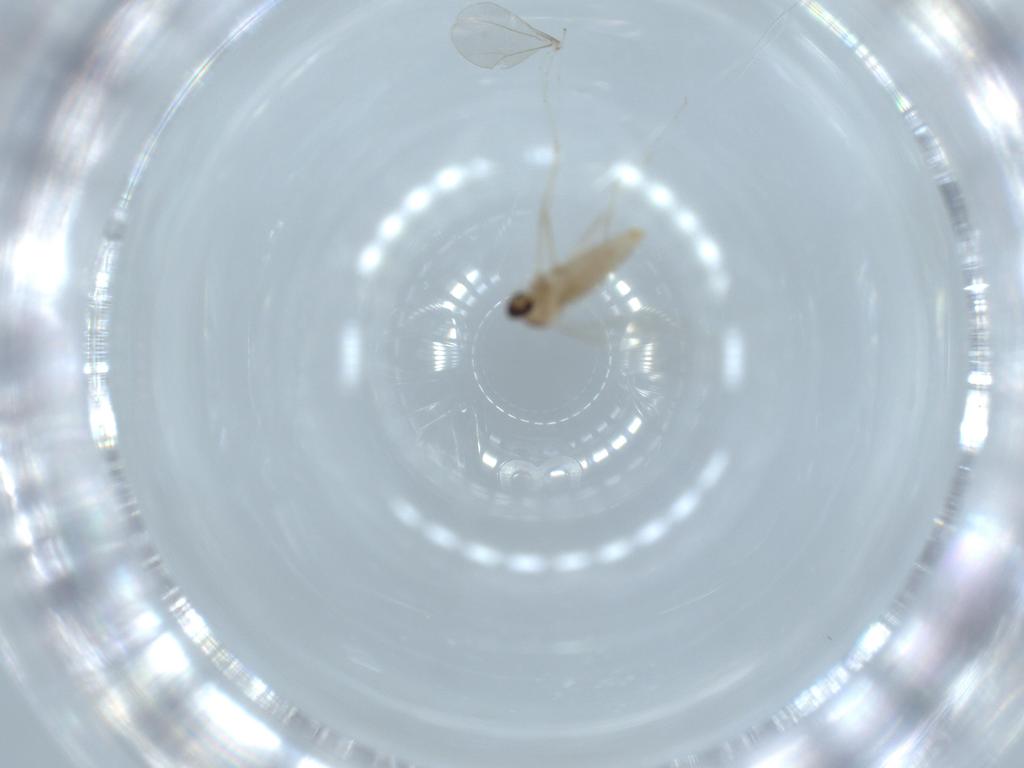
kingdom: Animalia
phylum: Arthropoda
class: Insecta
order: Diptera
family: Cecidomyiidae
